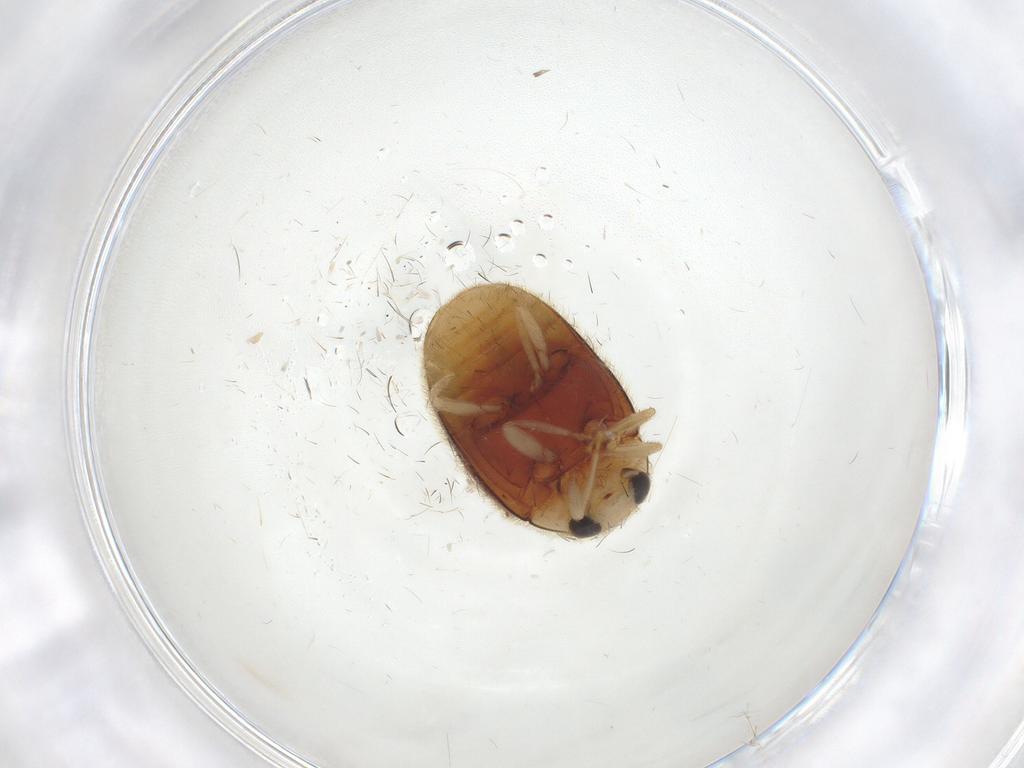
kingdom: Animalia
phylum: Arthropoda
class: Insecta
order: Coleoptera
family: Coccinellidae
